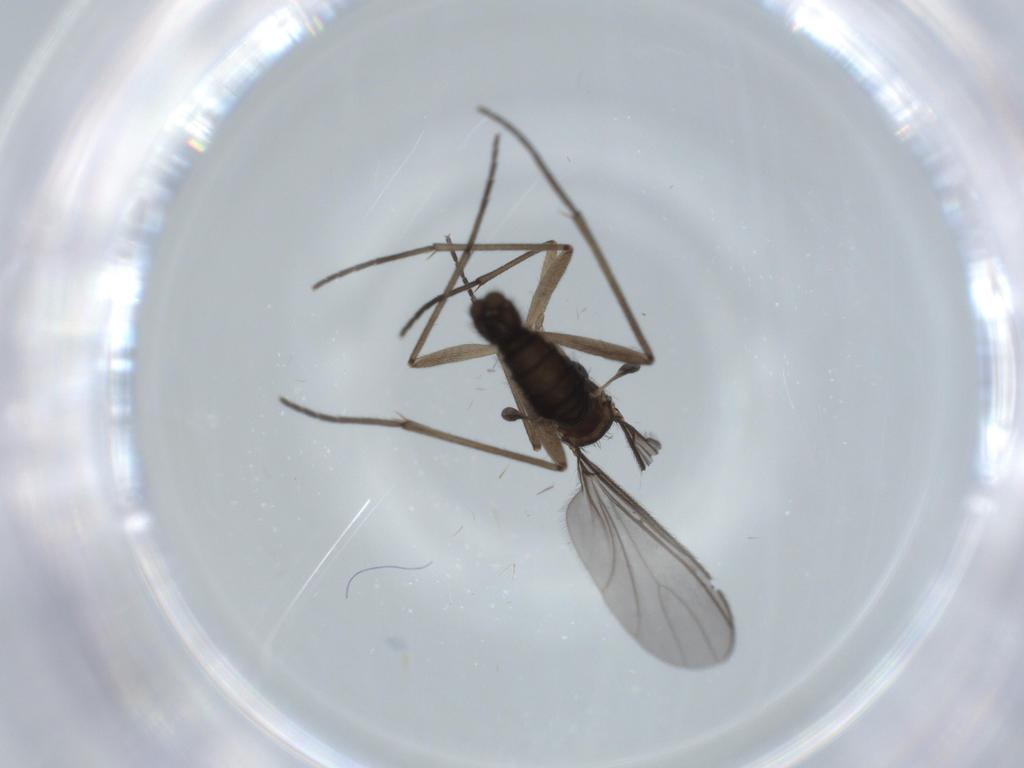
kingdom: Animalia
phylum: Arthropoda
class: Insecta
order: Diptera
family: Sciaridae
